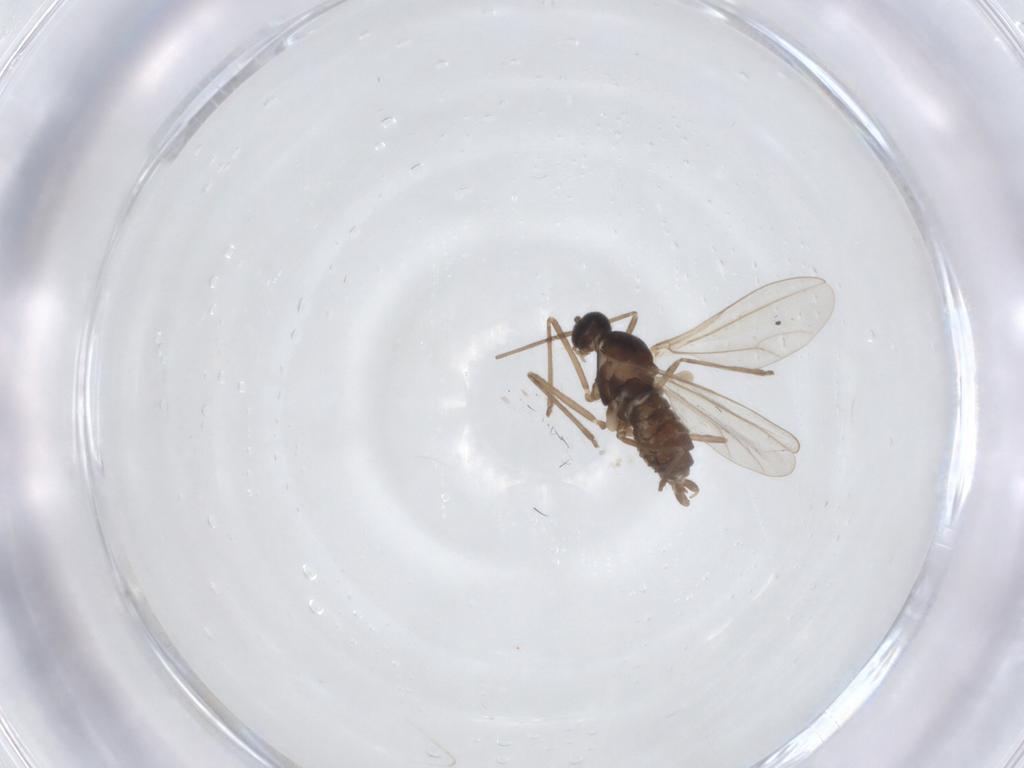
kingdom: Animalia
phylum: Arthropoda
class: Insecta
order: Diptera
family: Cecidomyiidae
